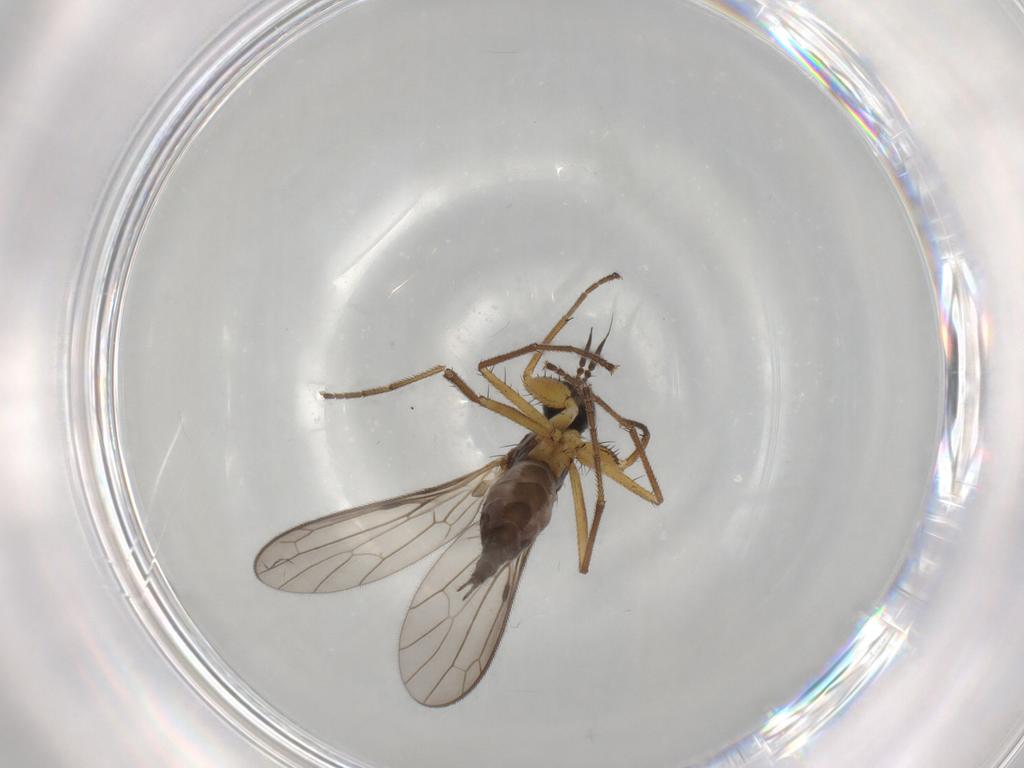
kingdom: Animalia
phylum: Arthropoda
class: Insecta
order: Diptera
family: Empididae
